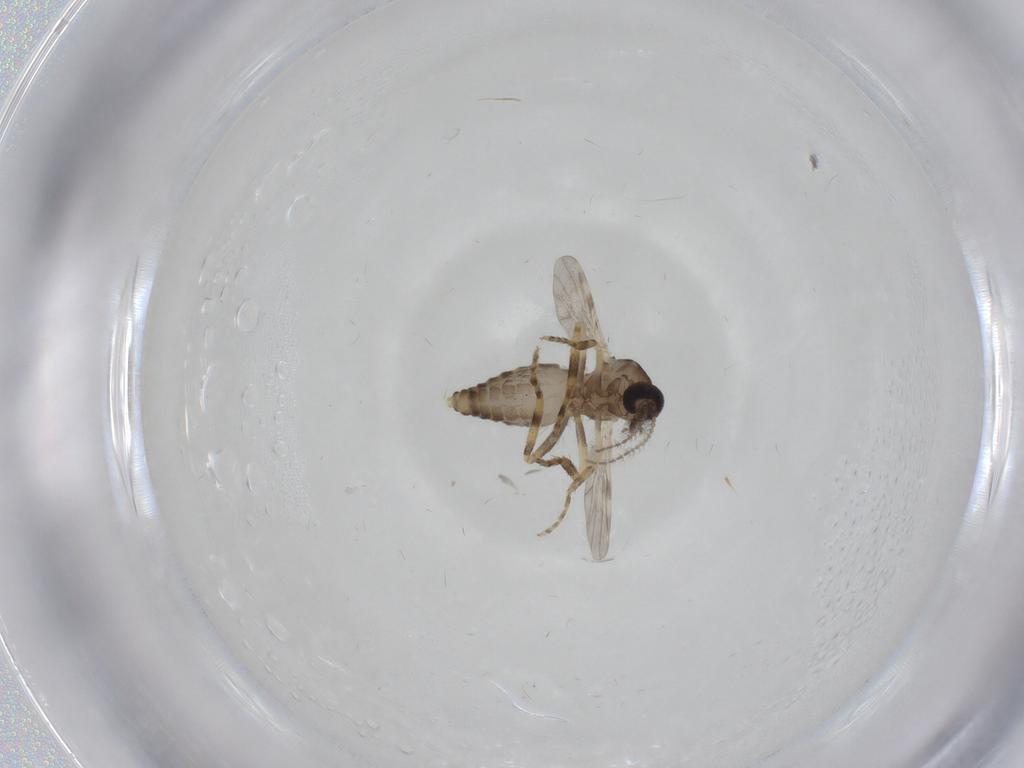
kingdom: Animalia
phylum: Arthropoda
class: Insecta
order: Diptera
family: Ceratopogonidae
